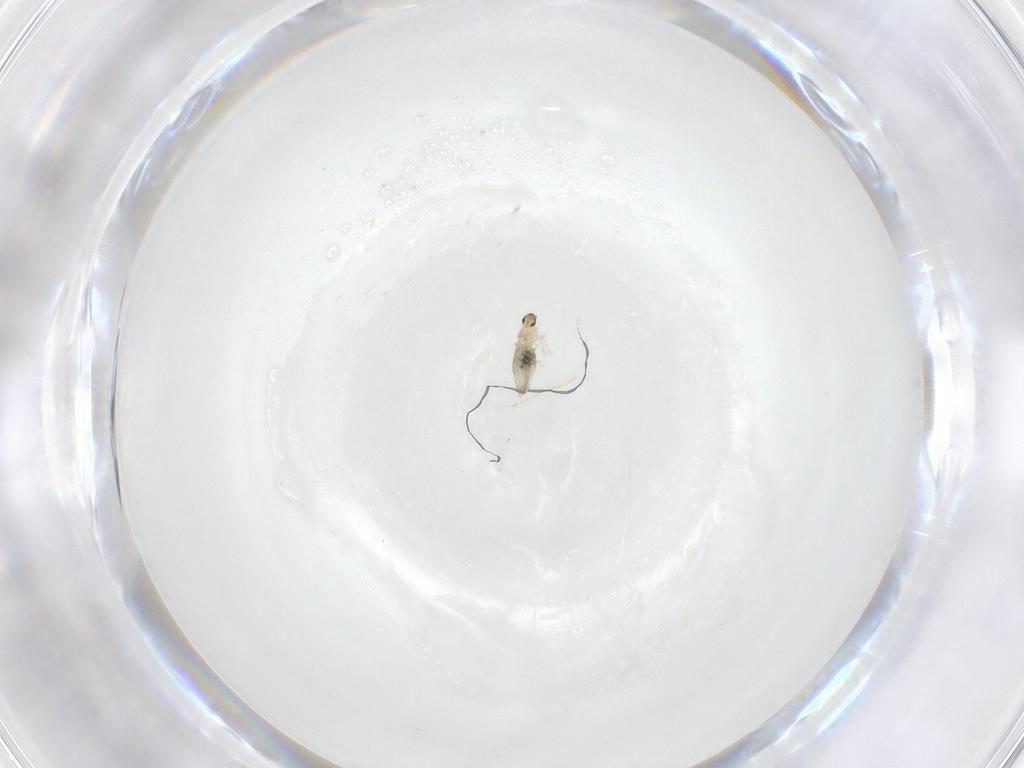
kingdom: Animalia
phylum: Arthropoda
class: Insecta
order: Diptera
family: Cecidomyiidae
